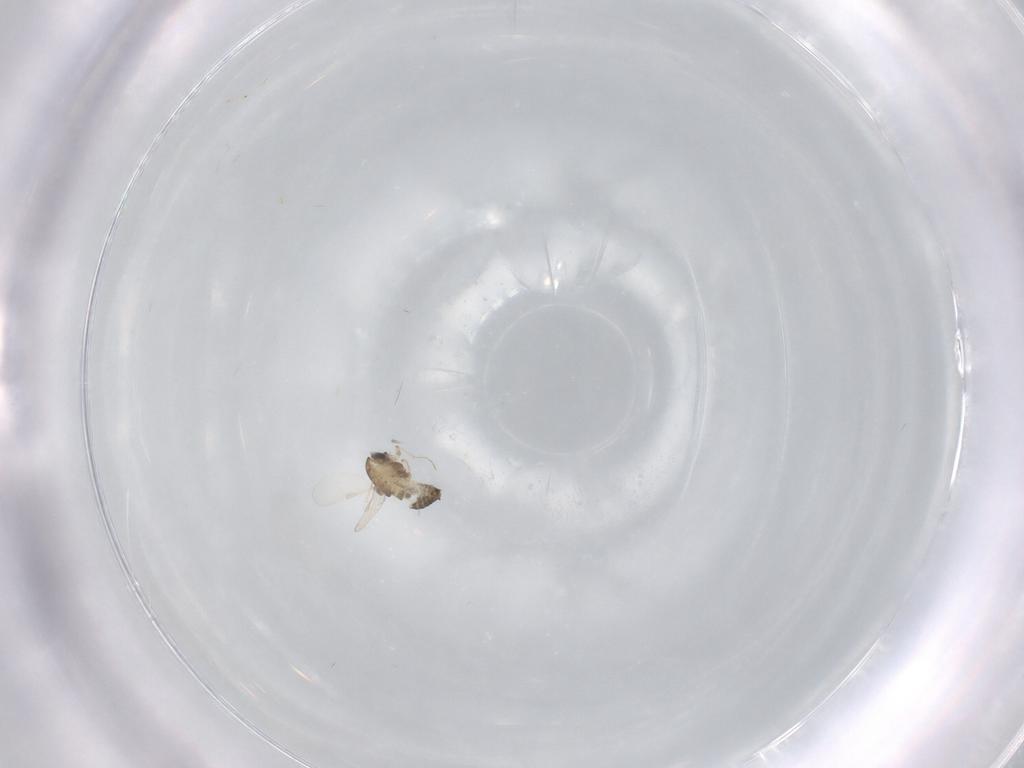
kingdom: Animalia
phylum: Arthropoda
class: Insecta
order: Diptera
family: Chironomidae
